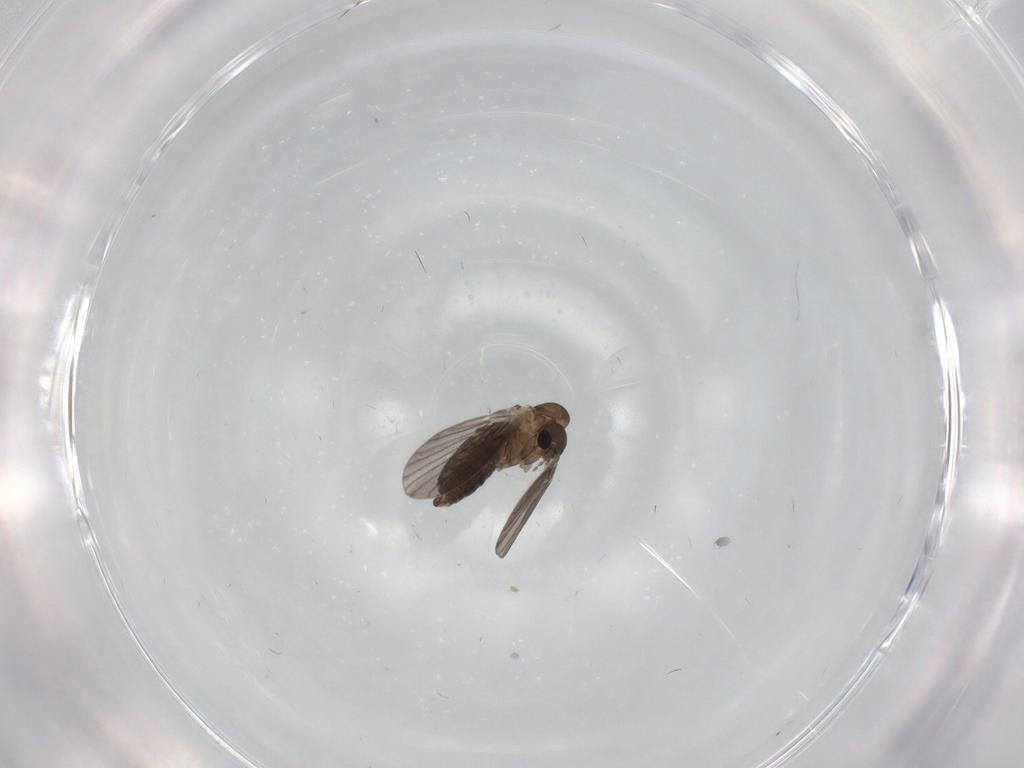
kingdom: Animalia
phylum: Arthropoda
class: Insecta
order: Diptera
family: Cecidomyiidae
